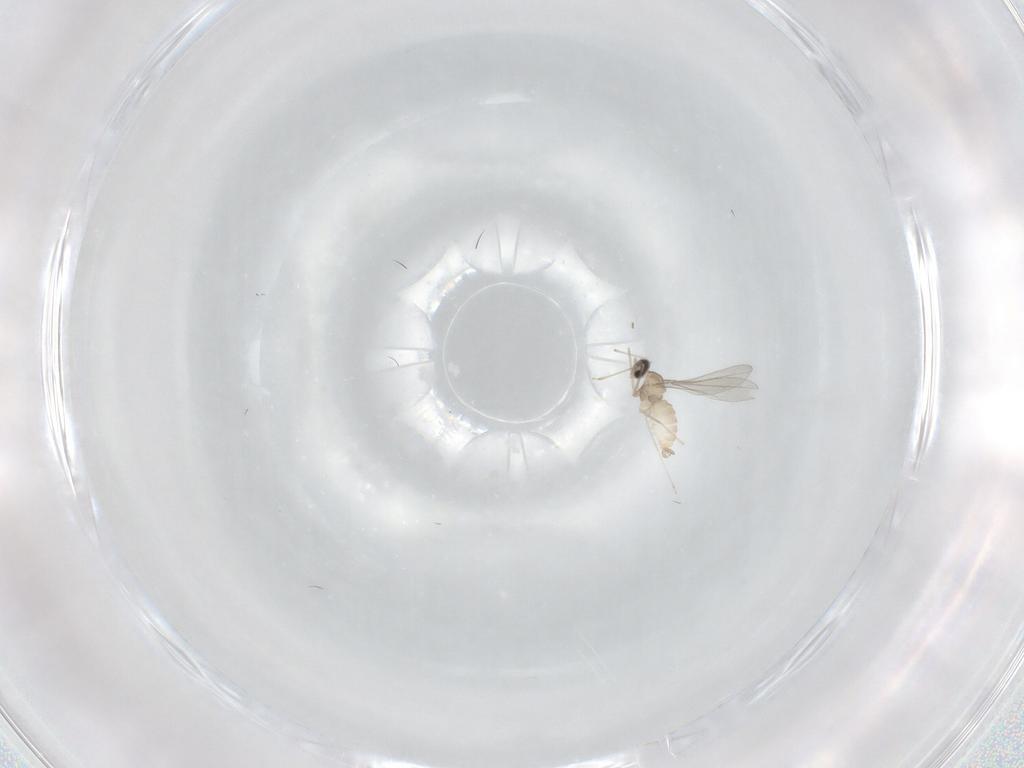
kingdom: Animalia
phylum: Arthropoda
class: Insecta
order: Diptera
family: Cecidomyiidae
